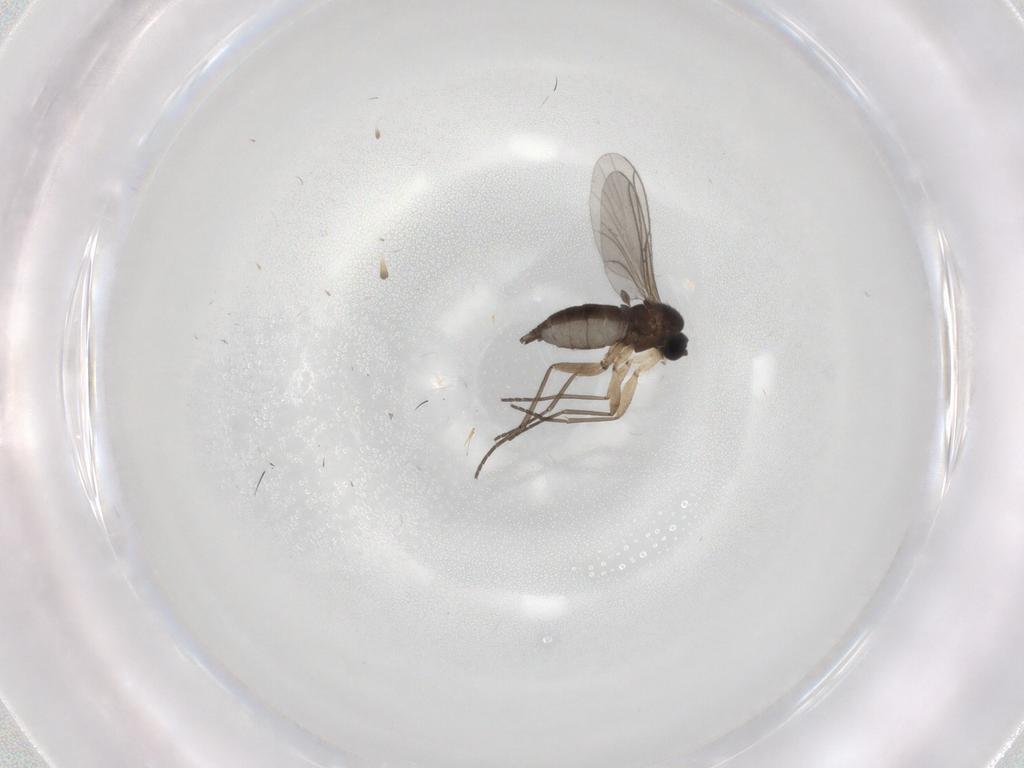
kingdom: Animalia
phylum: Arthropoda
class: Insecta
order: Diptera
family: Sciaridae
